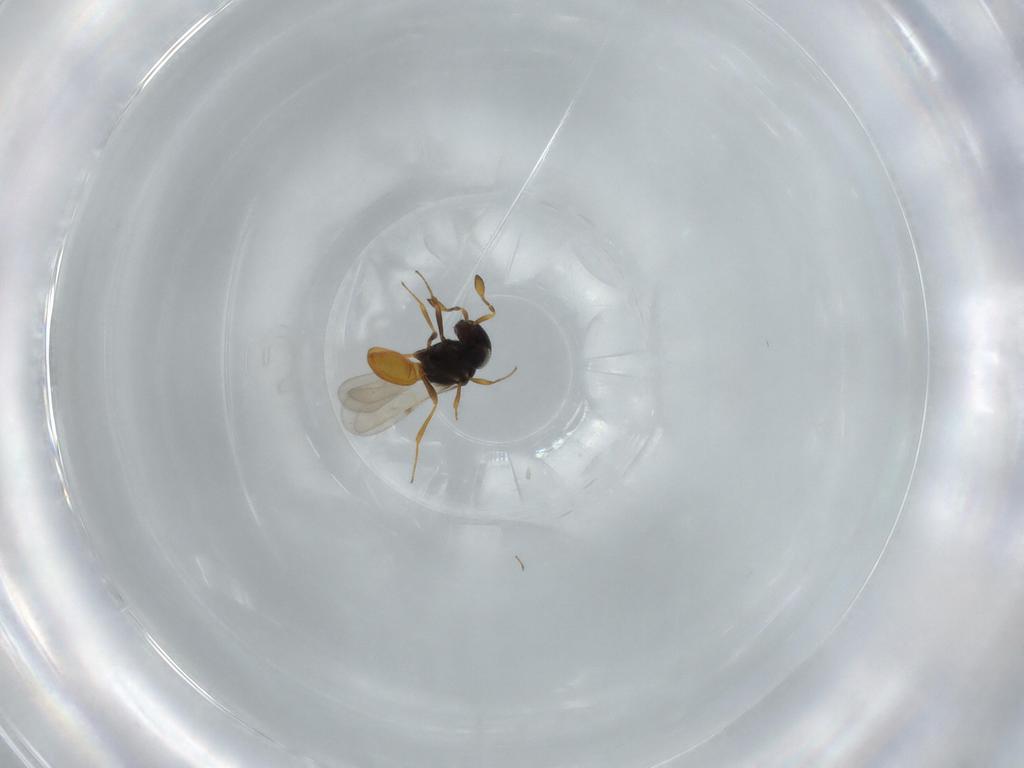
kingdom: Animalia
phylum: Arthropoda
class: Insecta
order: Hymenoptera
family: Scelionidae
